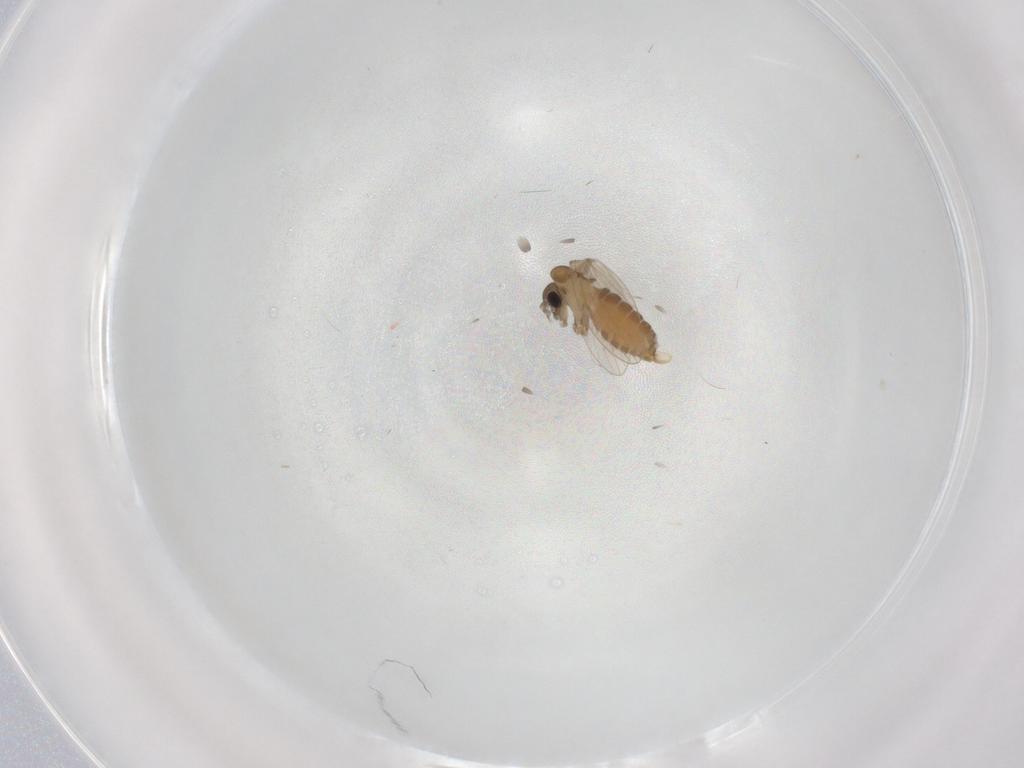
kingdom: Animalia
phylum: Arthropoda
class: Insecta
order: Diptera
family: Psychodidae
